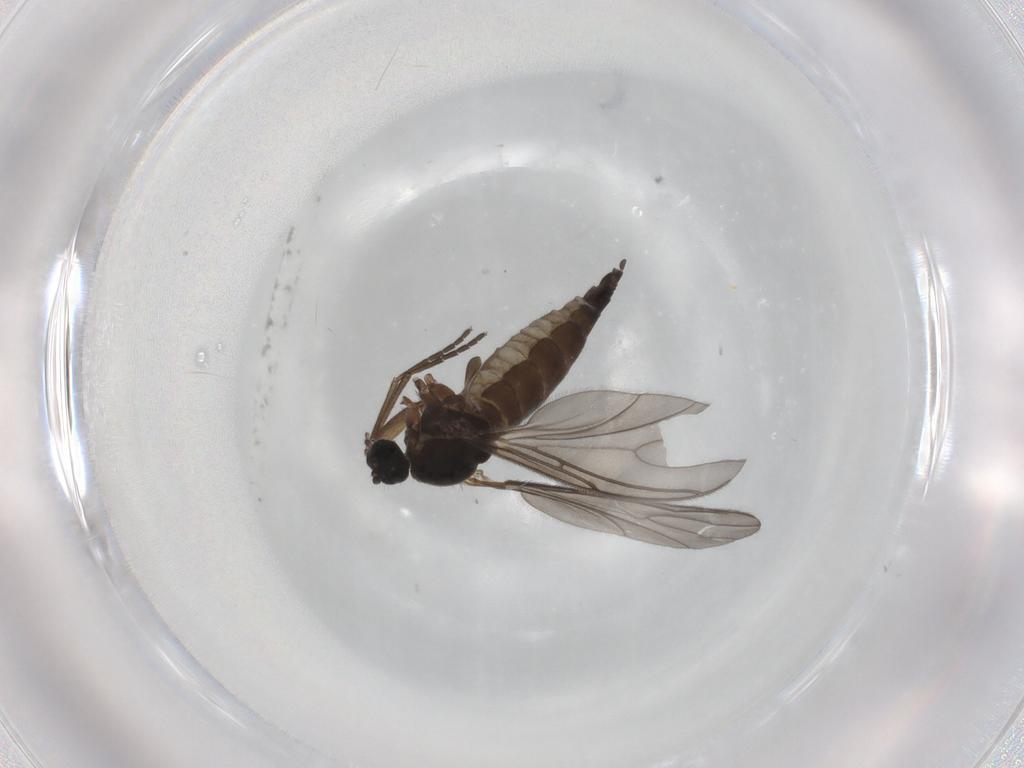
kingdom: Animalia
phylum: Arthropoda
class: Insecta
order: Diptera
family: Sciaridae
